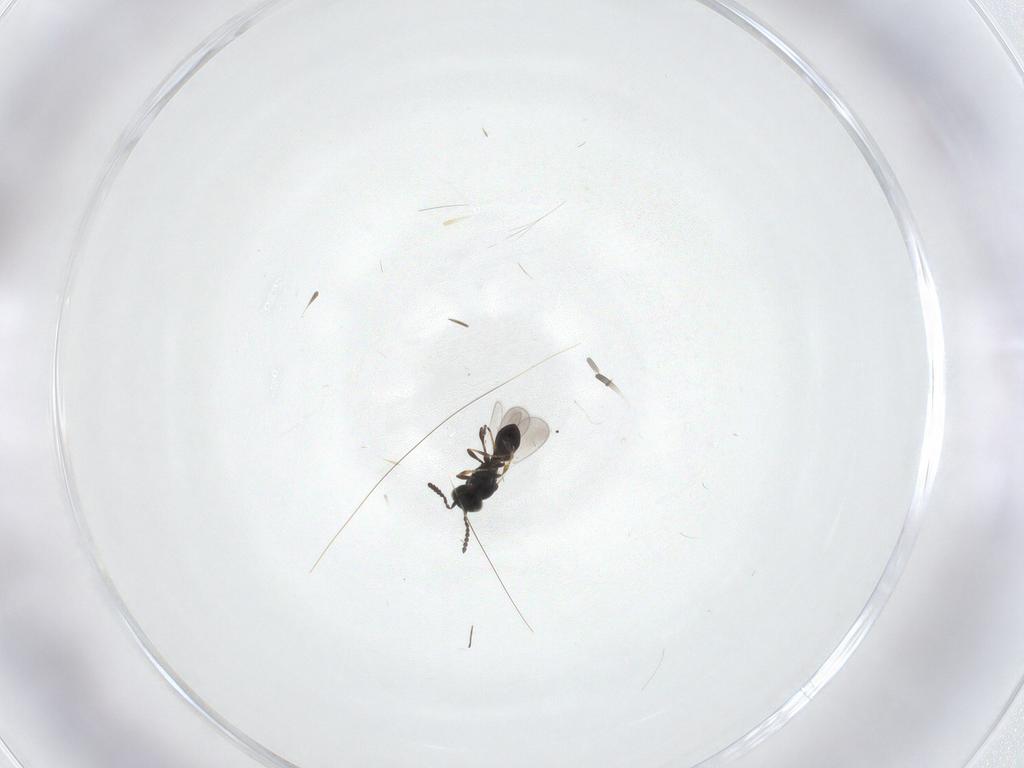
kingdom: Animalia
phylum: Arthropoda
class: Insecta
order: Hymenoptera
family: Platygastridae
